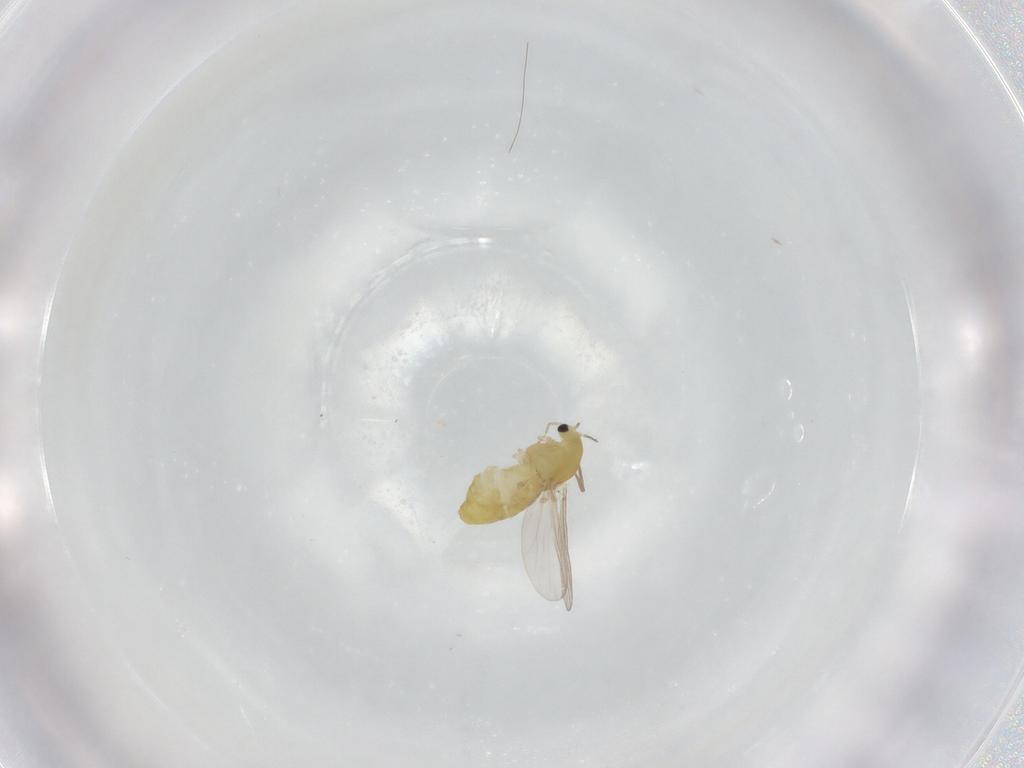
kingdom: Animalia
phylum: Arthropoda
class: Insecta
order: Diptera
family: Chironomidae
